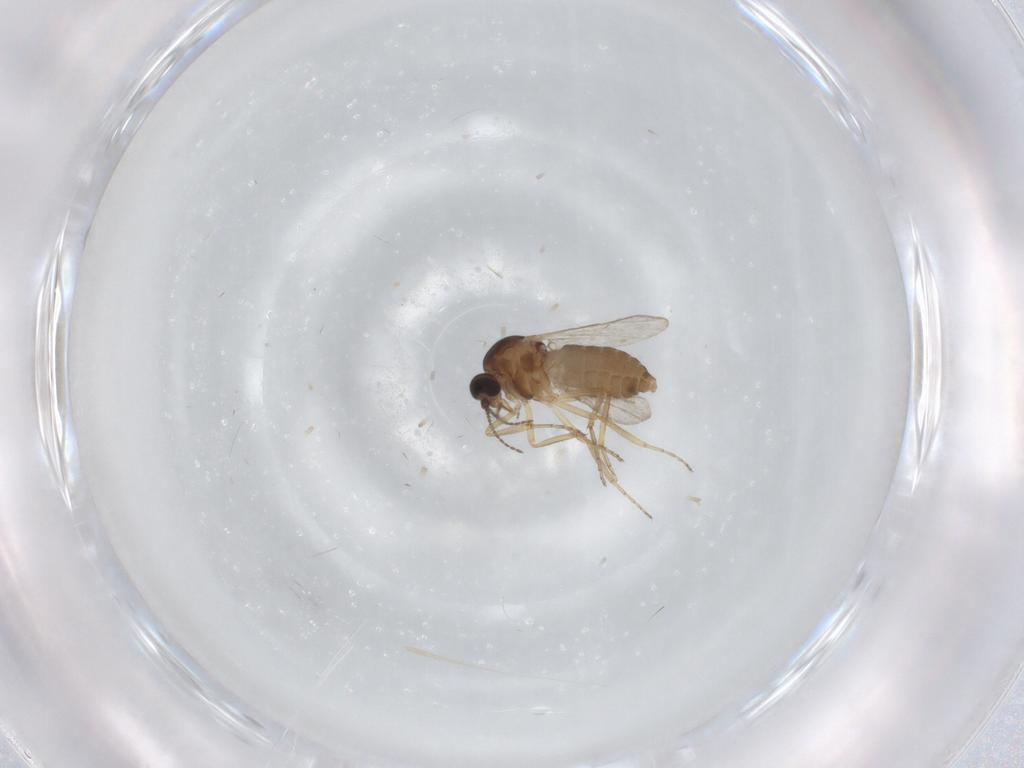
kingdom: Animalia
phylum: Arthropoda
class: Insecta
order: Diptera
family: Ceratopogonidae
